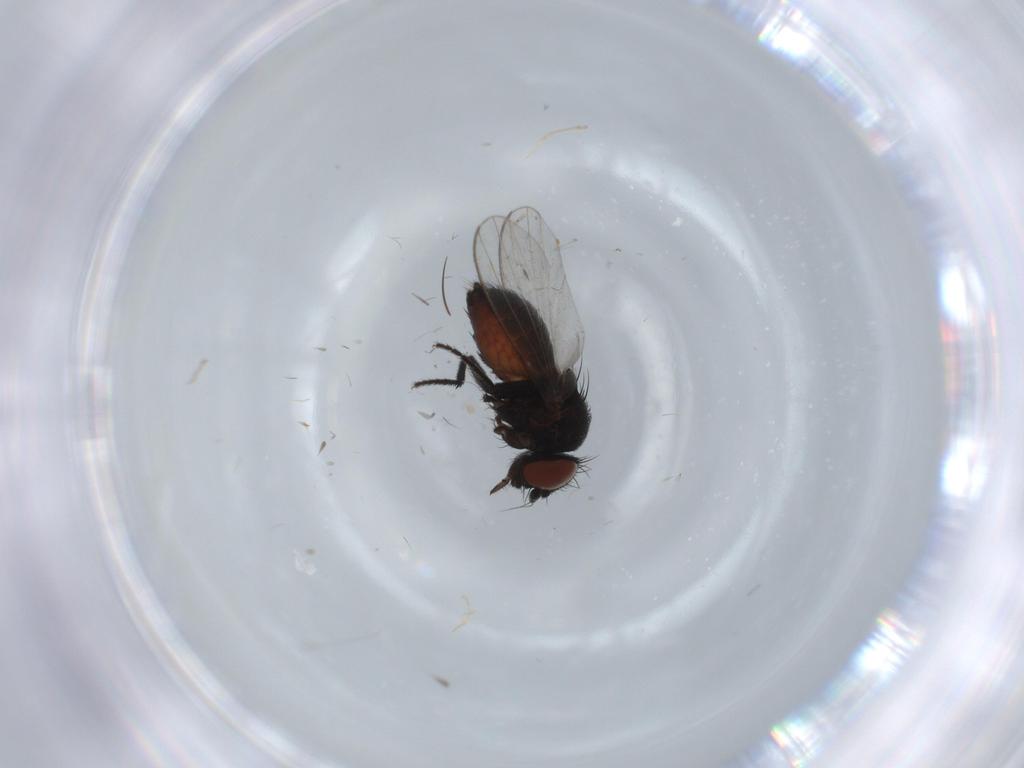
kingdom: Animalia
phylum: Arthropoda
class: Insecta
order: Diptera
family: Milichiidae
